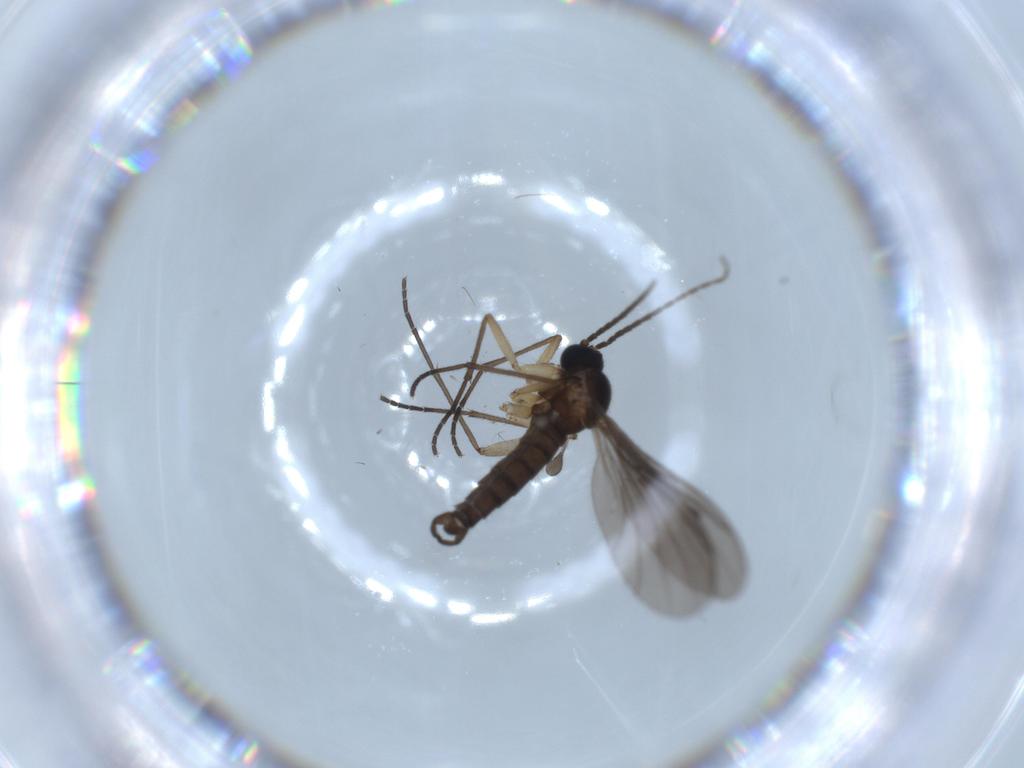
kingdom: Animalia
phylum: Arthropoda
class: Insecta
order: Diptera
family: Sciaridae
